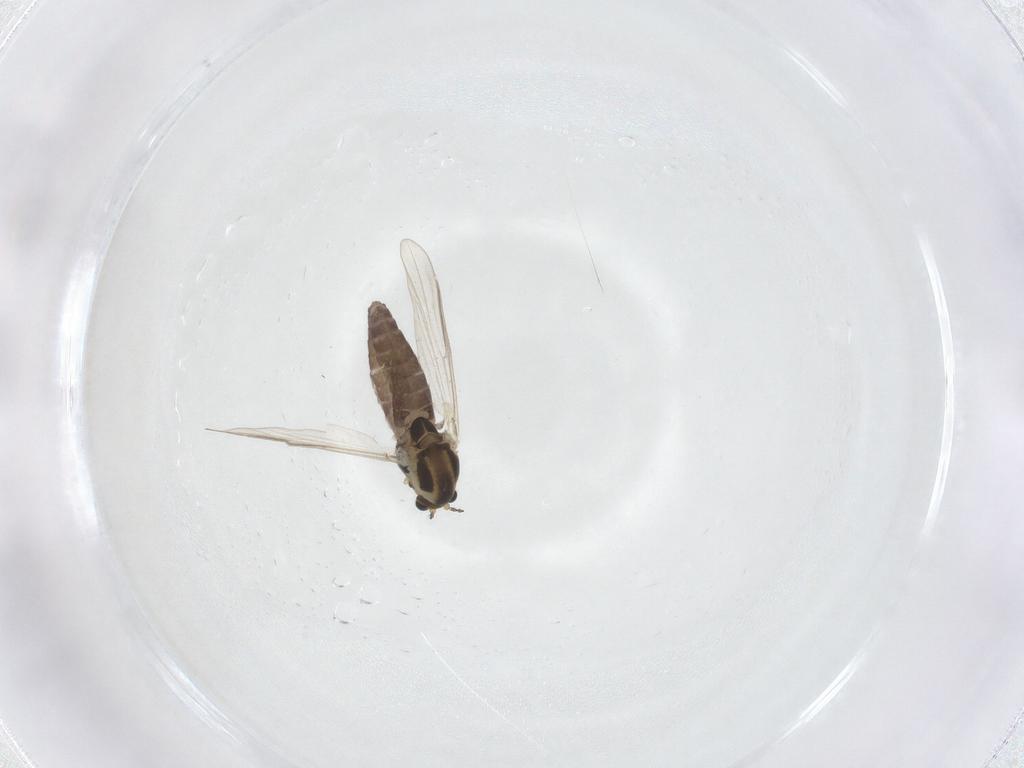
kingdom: Animalia
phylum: Arthropoda
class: Insecta
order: Diptera
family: Chironomidae
